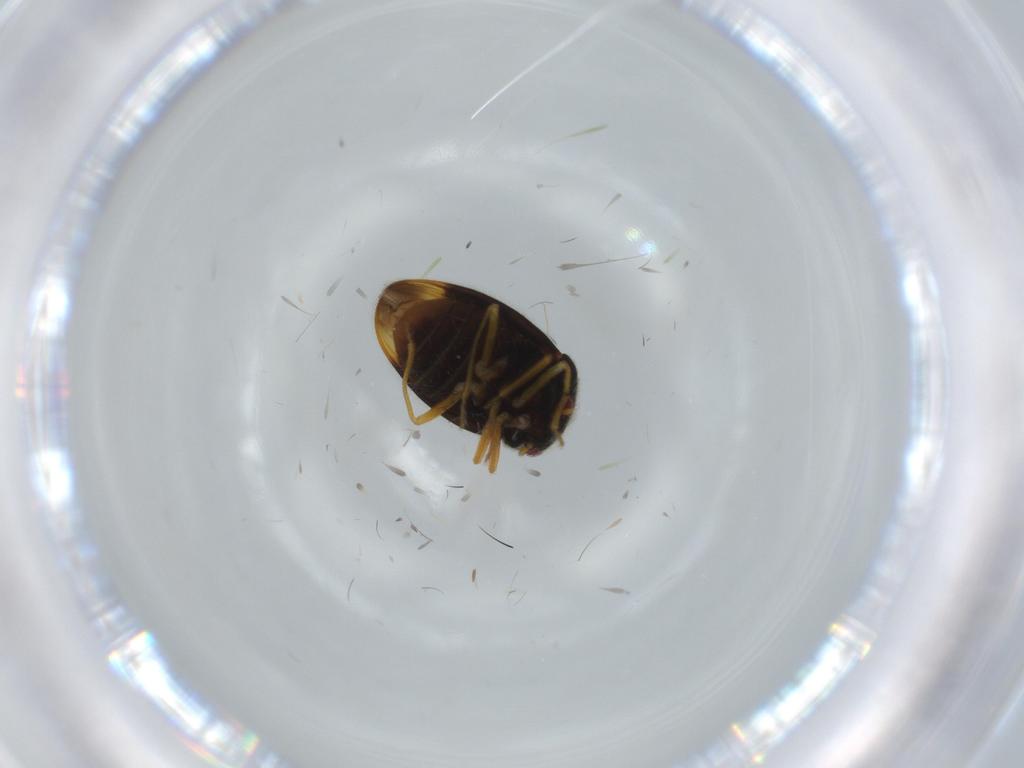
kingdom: Animalia
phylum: Arthropoda
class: Insecta
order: Hemiptera
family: Schizopteridae
